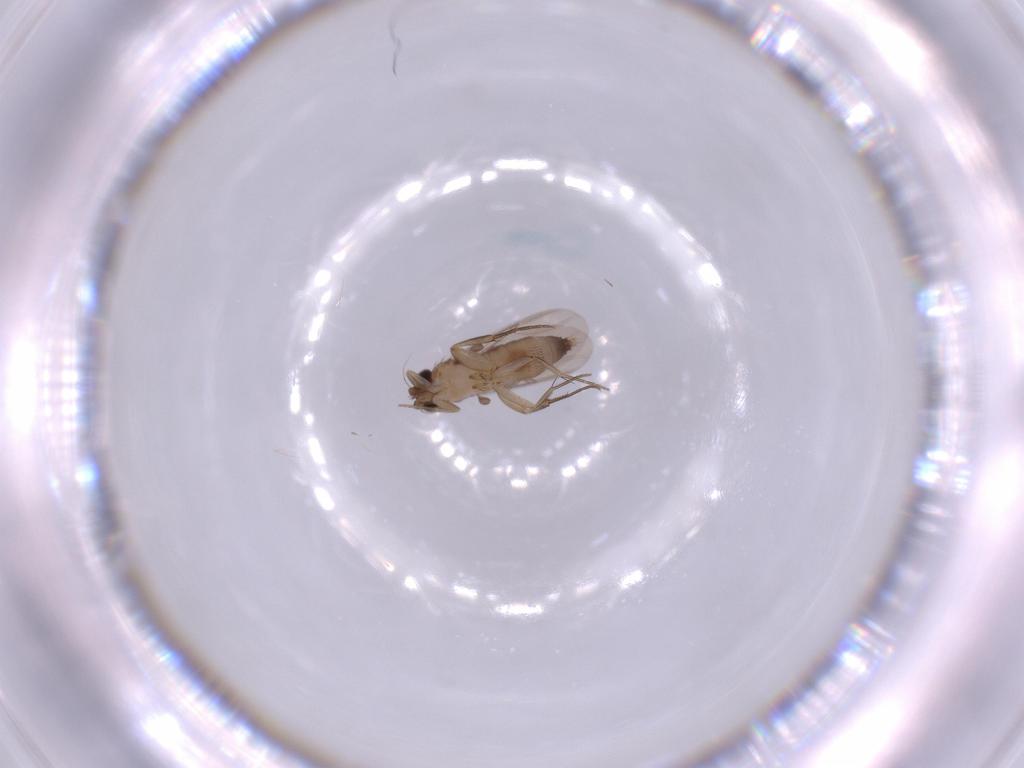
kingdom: Animalia
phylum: Arthropoda
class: Insecta
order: Diptera
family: Phoridae
